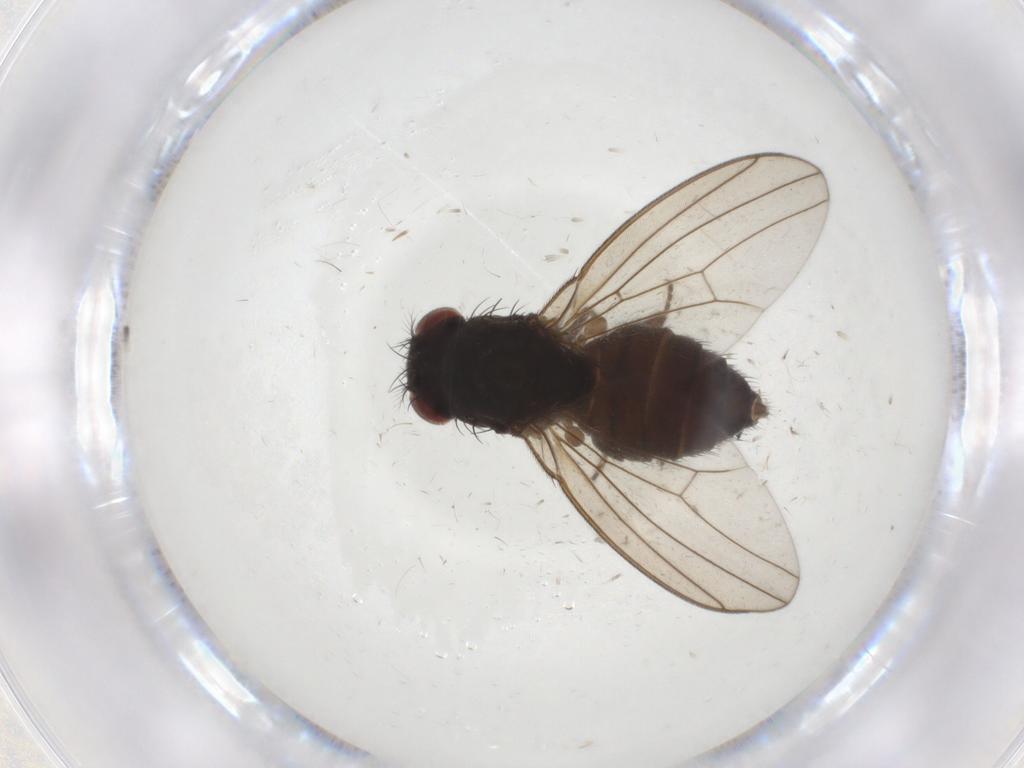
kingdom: Animalia
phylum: Arthropoda
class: Insecta
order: Diptera
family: Drosophilidae
